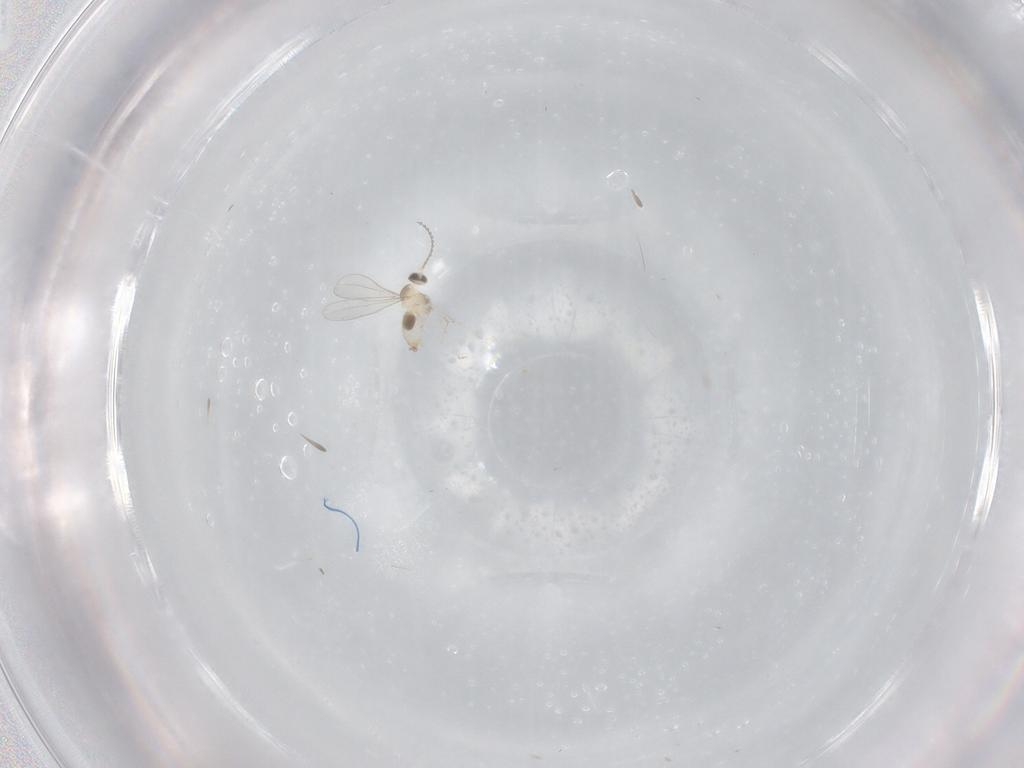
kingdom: Animalia
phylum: Arthropoda
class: Insecta
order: Diptera
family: Cecidomyiidae
